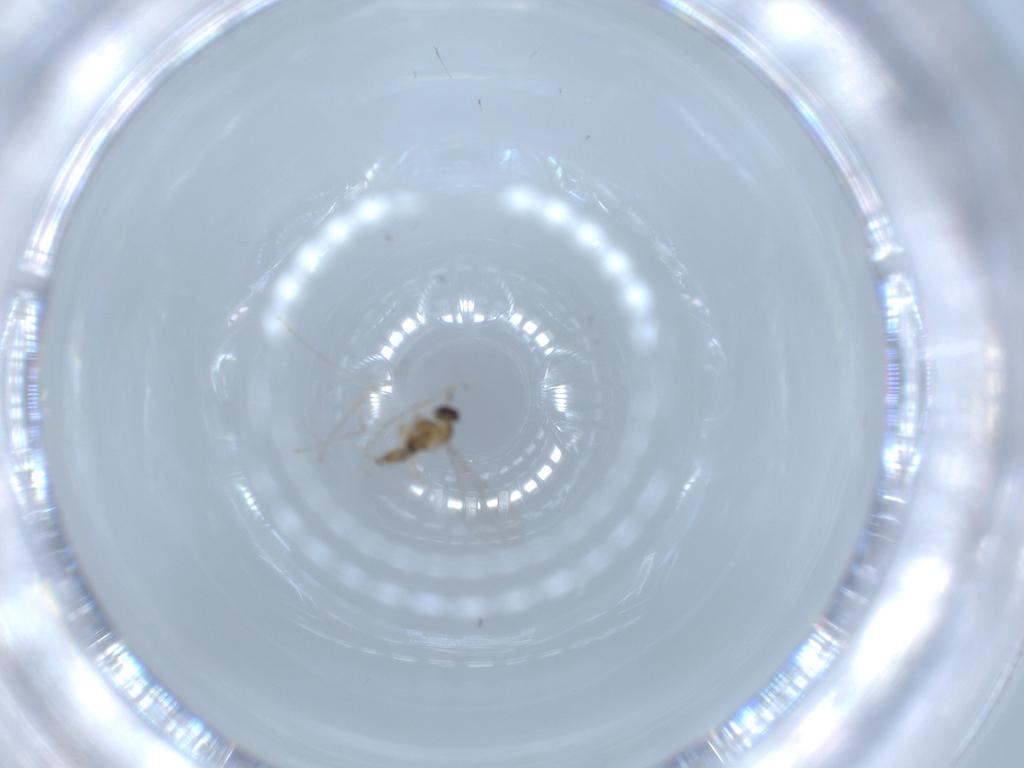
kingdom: Animalia
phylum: Arthropoda
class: Insecta
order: Diptera
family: Cecidomyiidae
